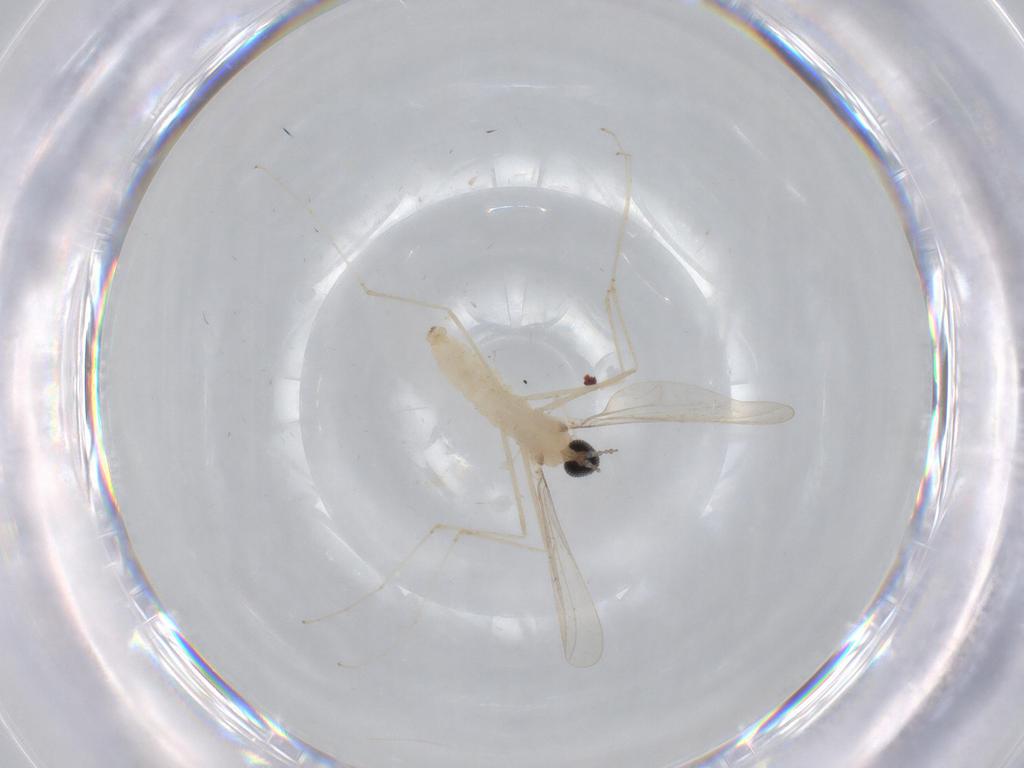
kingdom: Animalia
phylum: Arthropoda
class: Insecta
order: Diptera
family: Cecidomyiidae
